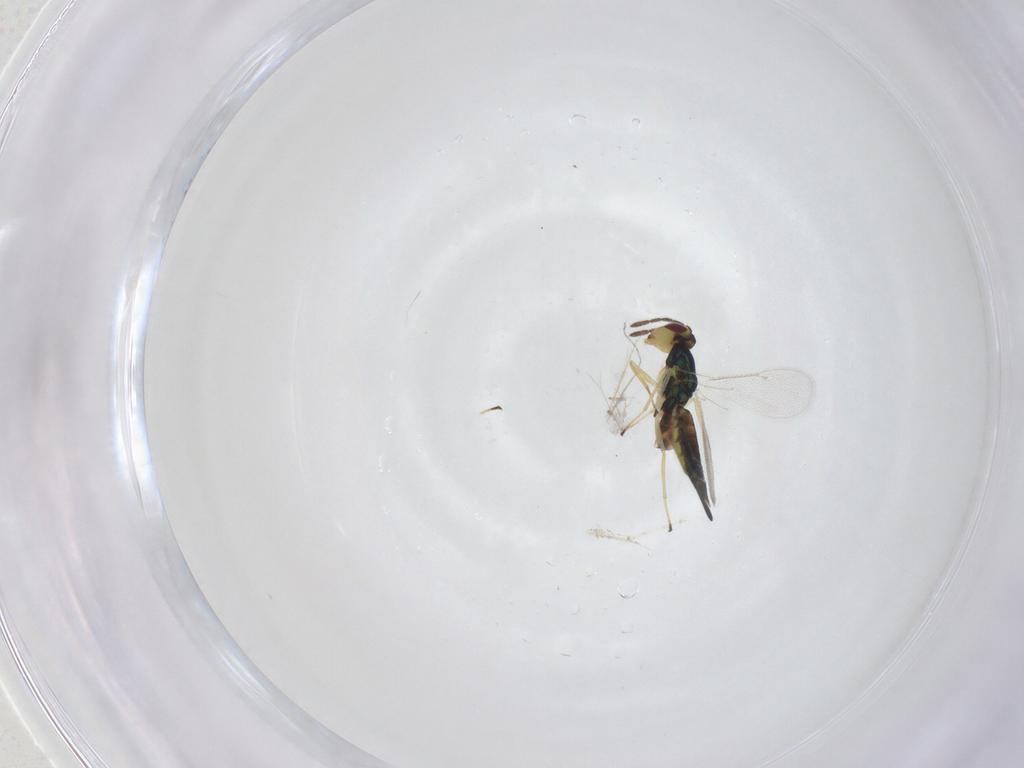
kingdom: Animalia
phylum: Arthropoda
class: Insecta
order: Hymenoptera
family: Eulophidae
